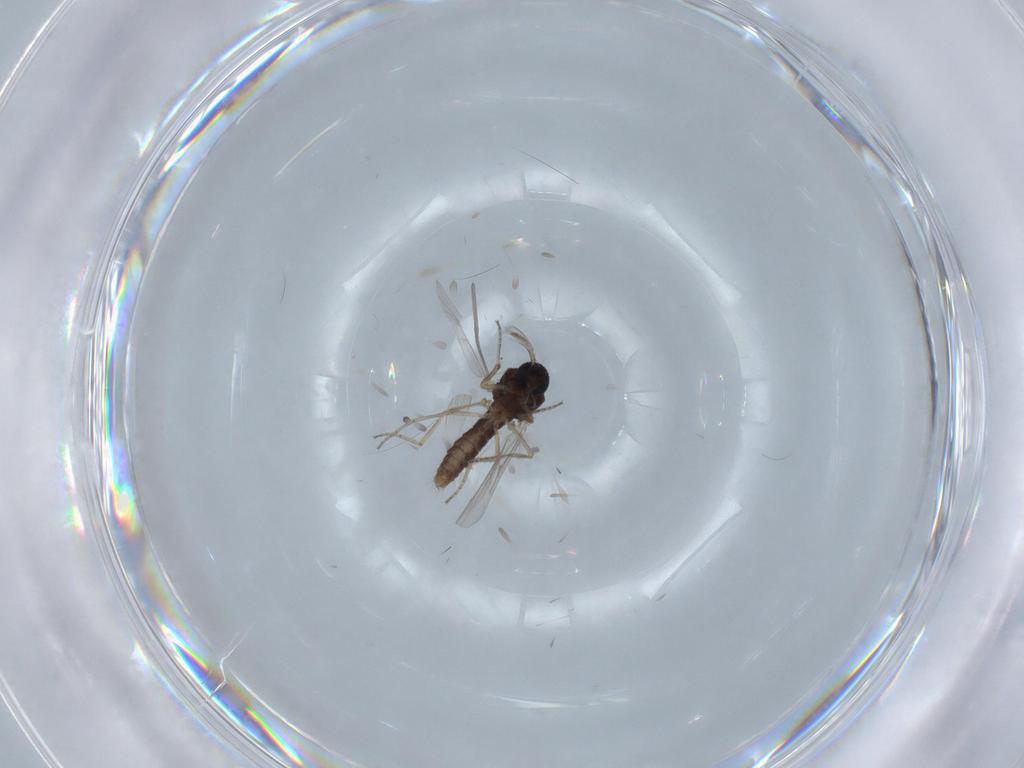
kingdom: Animalia
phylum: Arthropoda
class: Insecta
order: Diptera
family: Ceratopogonidae
